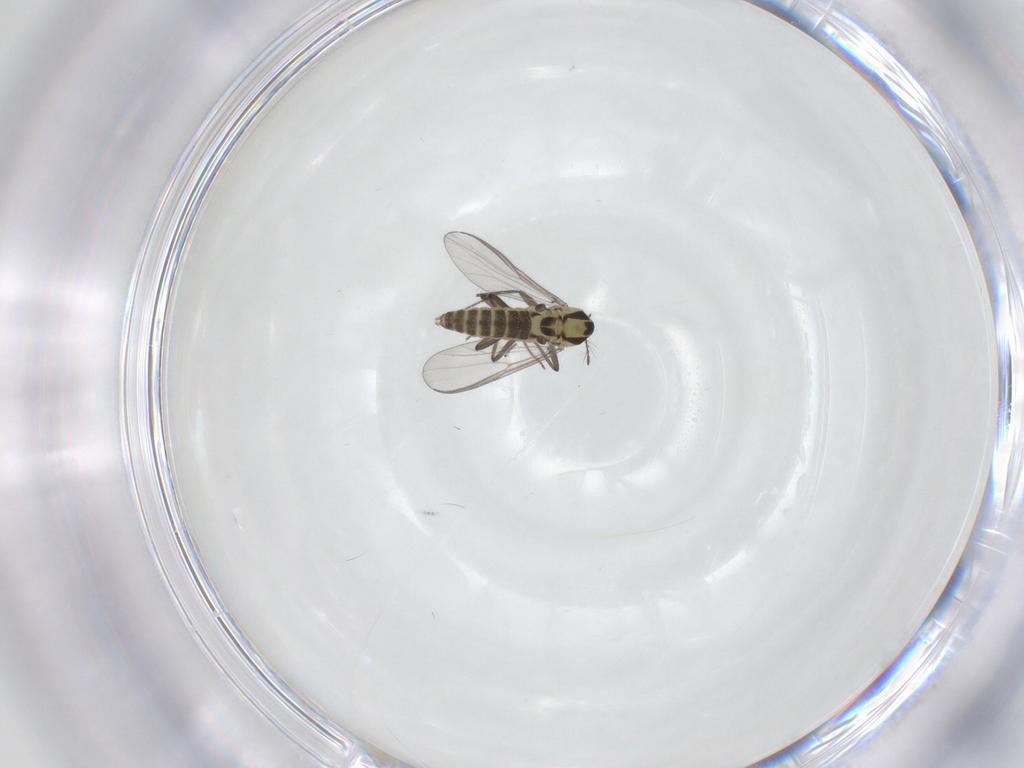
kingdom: Animalia
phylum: Arthropoda
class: Insecta
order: Diptera
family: Chironomidae
